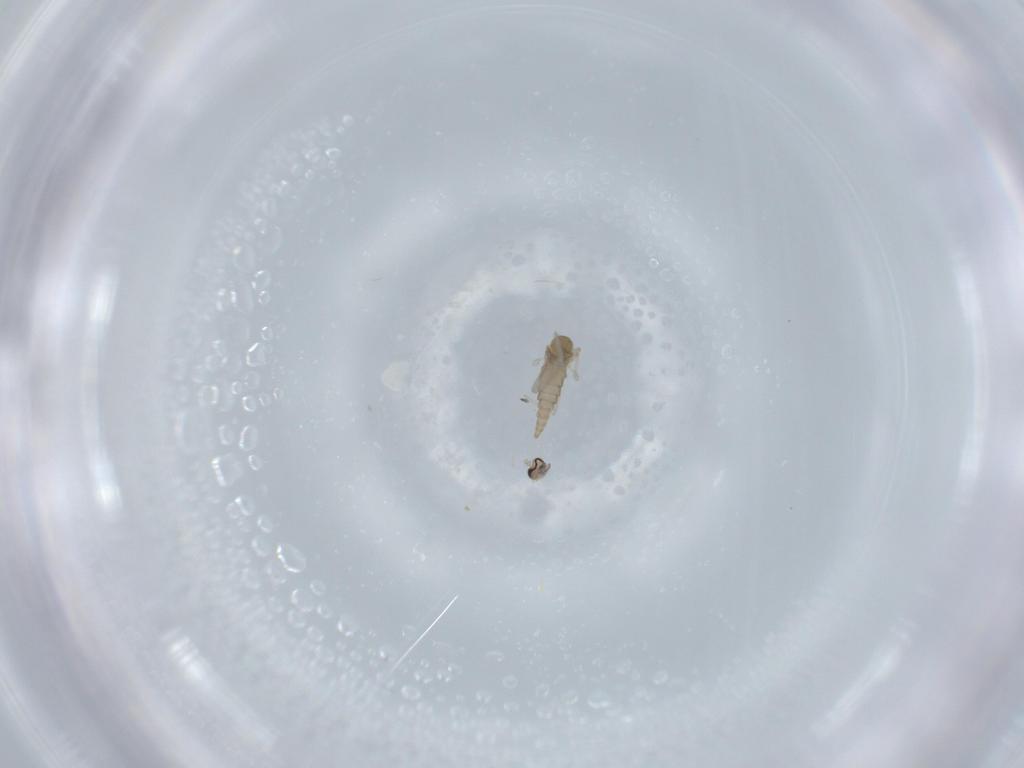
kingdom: Animalia
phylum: Arthropoda
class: Insecta
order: Diptera
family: Cecidomyiidae
